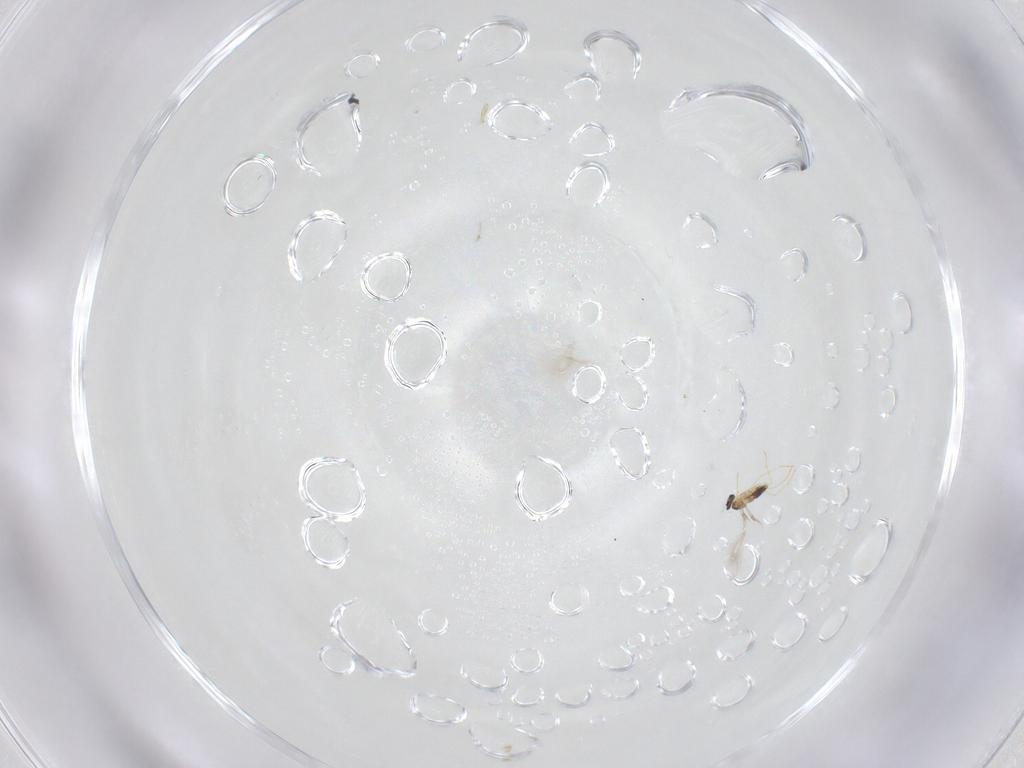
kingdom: Animalia
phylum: Arthropoda
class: Insecta
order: Hymenoptera
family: Mymaridae
